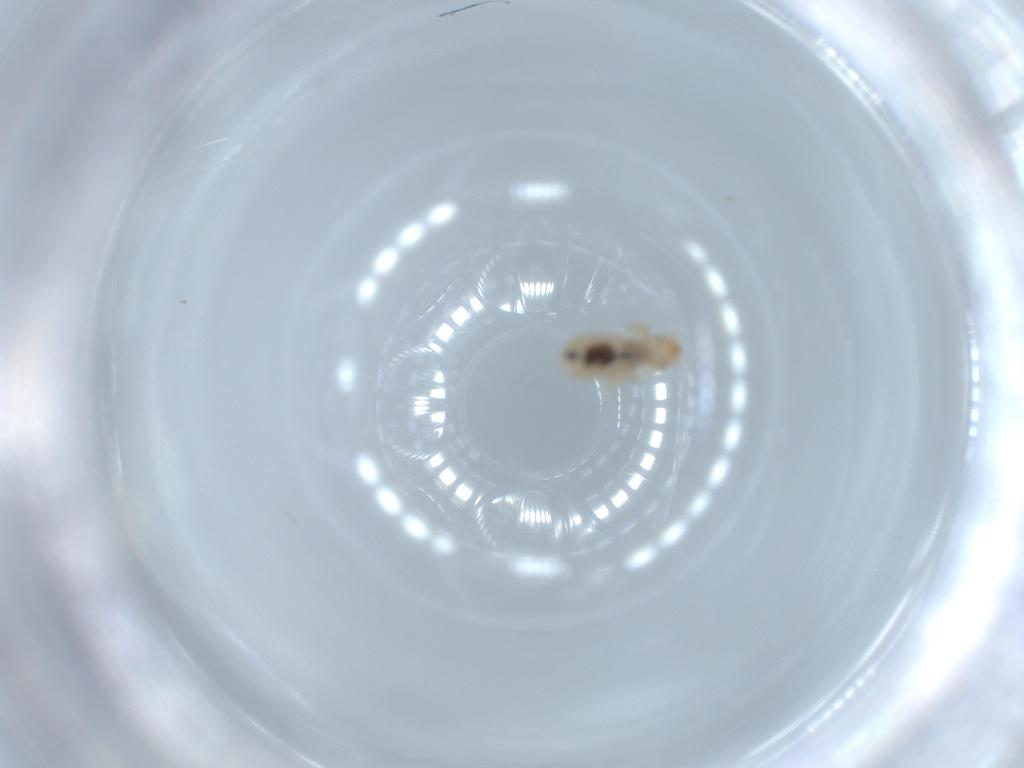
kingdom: Animalia
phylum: Arthropoda
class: Insecta
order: Psocodea
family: Liposcelididae
